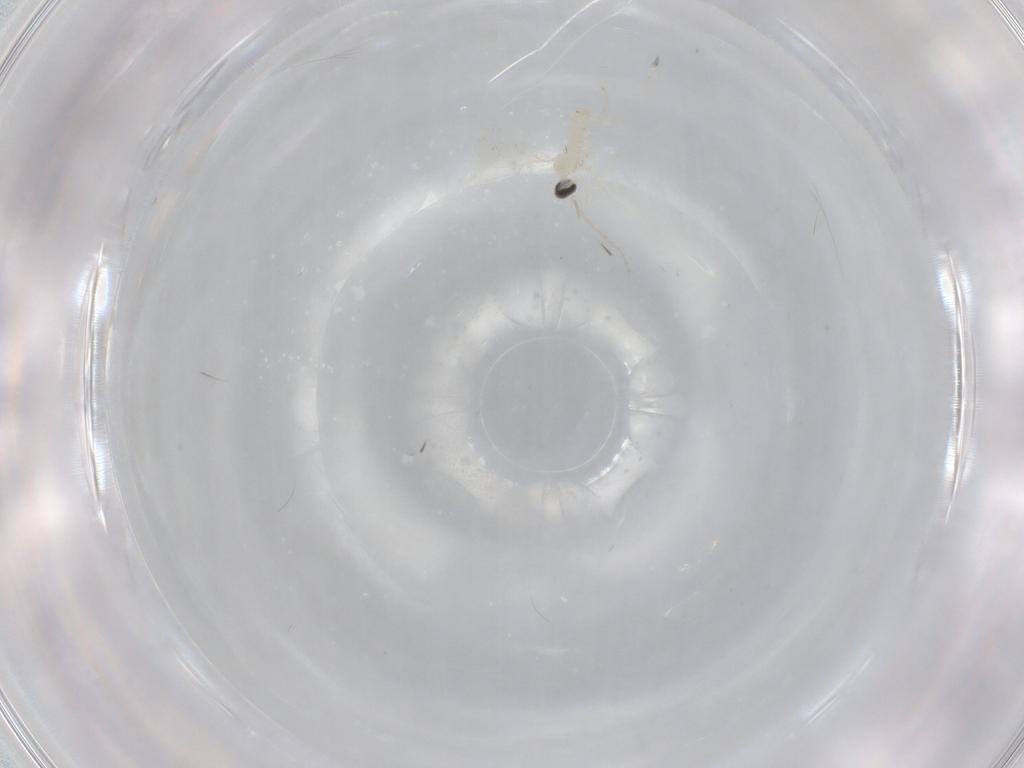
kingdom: Animalia
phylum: Arthropoda
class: Insecta
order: Diptera
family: Cecidomyiidae
